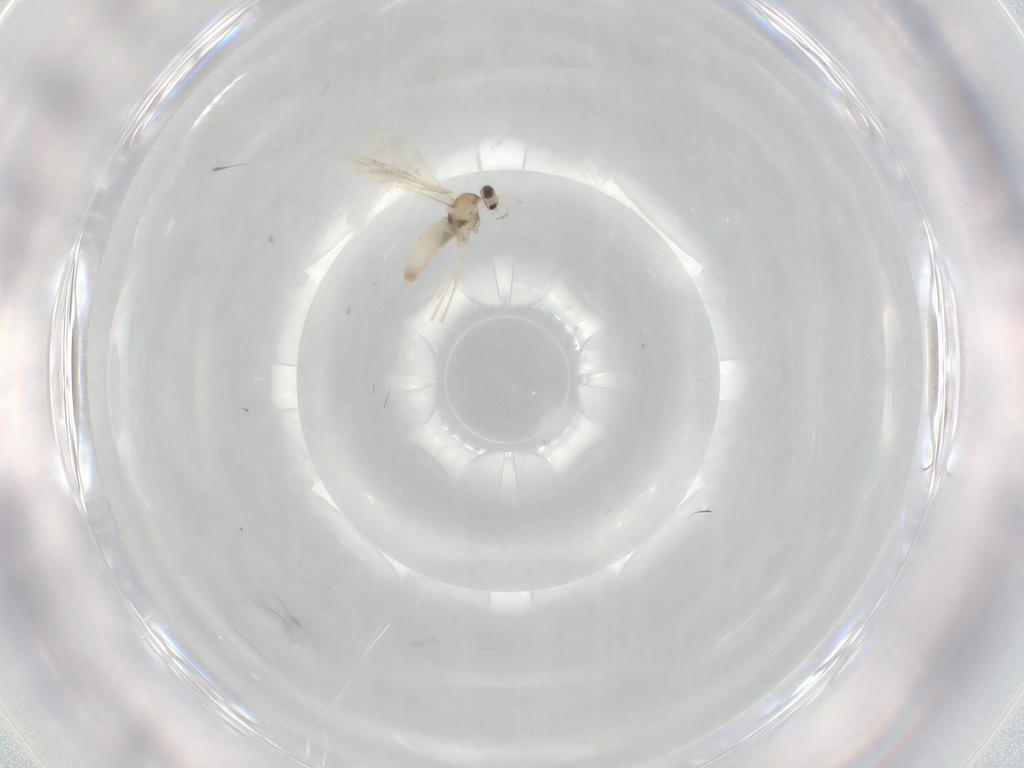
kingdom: Animalia
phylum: Arthropoda
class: Insecta
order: Diptera
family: Cecidomyiidae
